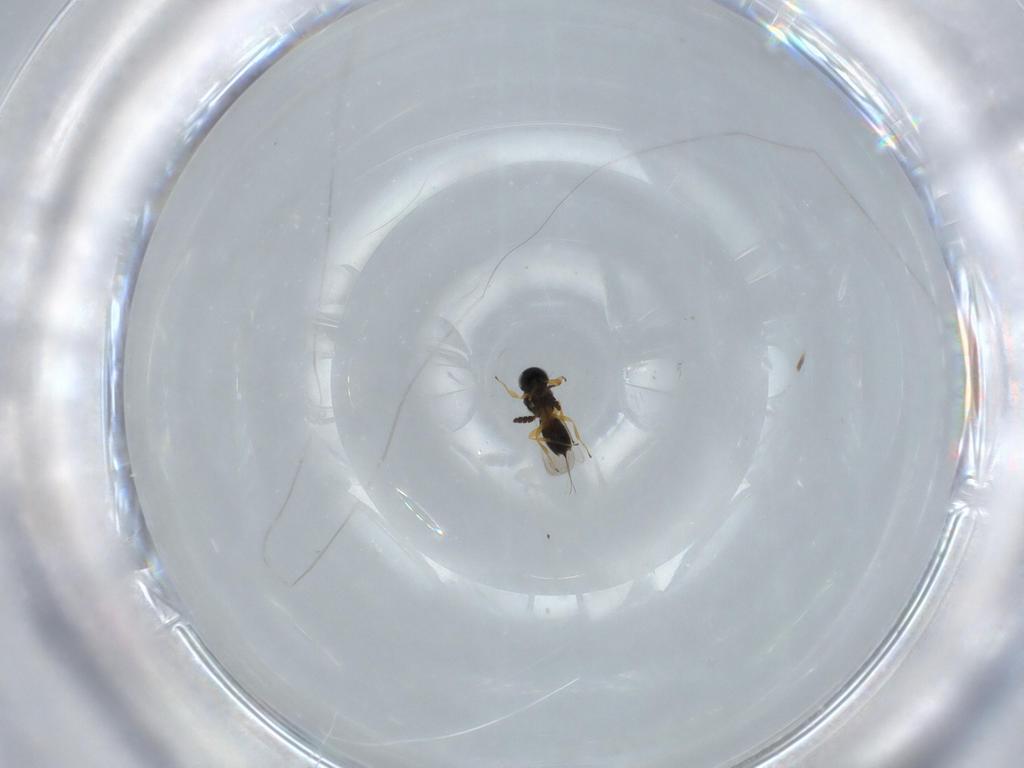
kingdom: Animalia
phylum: Arthropoda
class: Insecta
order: Hymenoptera
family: Scelionidae
